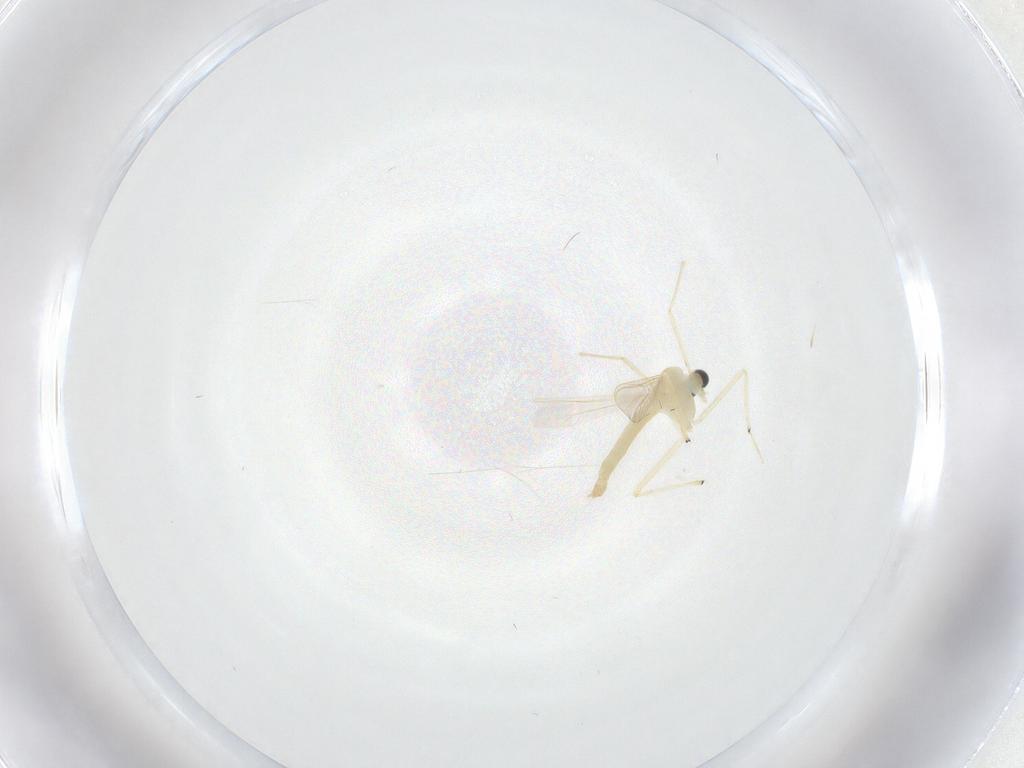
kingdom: Animalia
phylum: Arthropoda
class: Insecta
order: Diptera
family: Chironomidae
